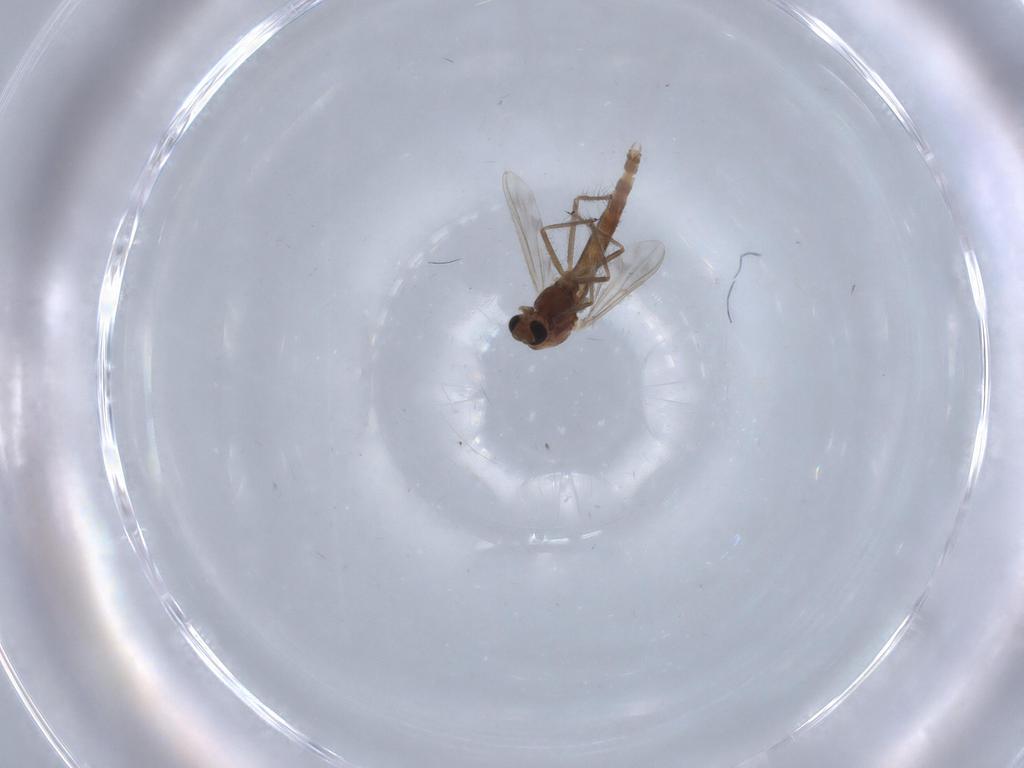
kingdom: Animalia
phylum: Arthropoda
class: Insecta
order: Diptera
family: Chironomidae
